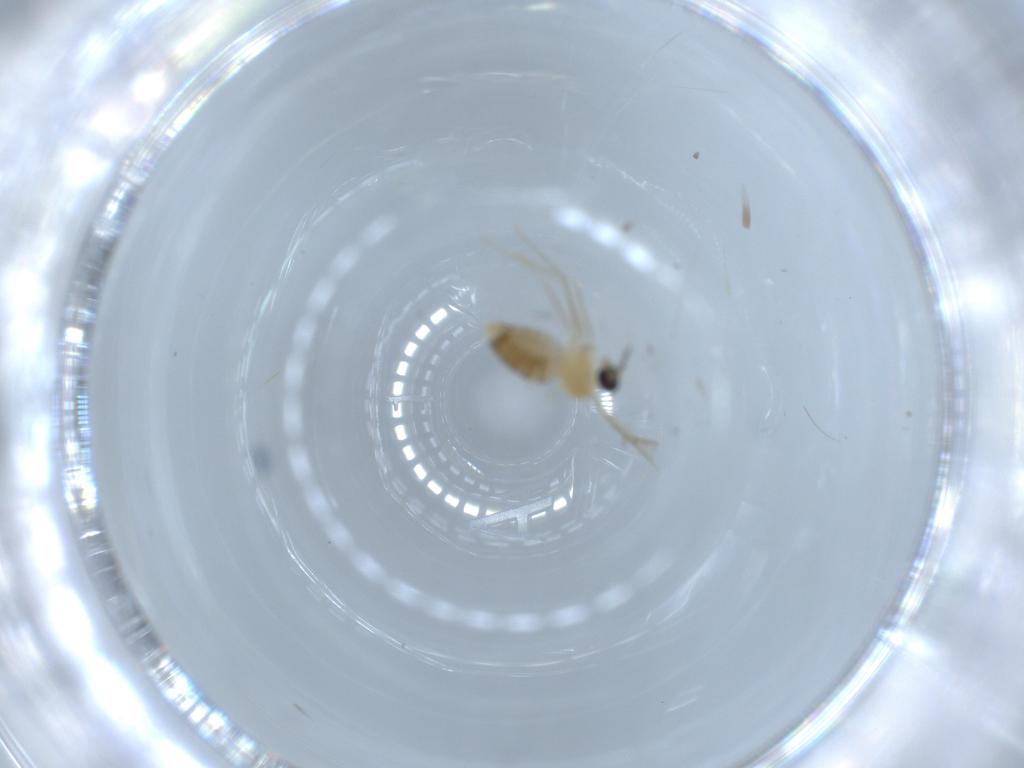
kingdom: Animalia
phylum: Arthropoda
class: Insecta
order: Diptera
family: Cecidomyiidae
